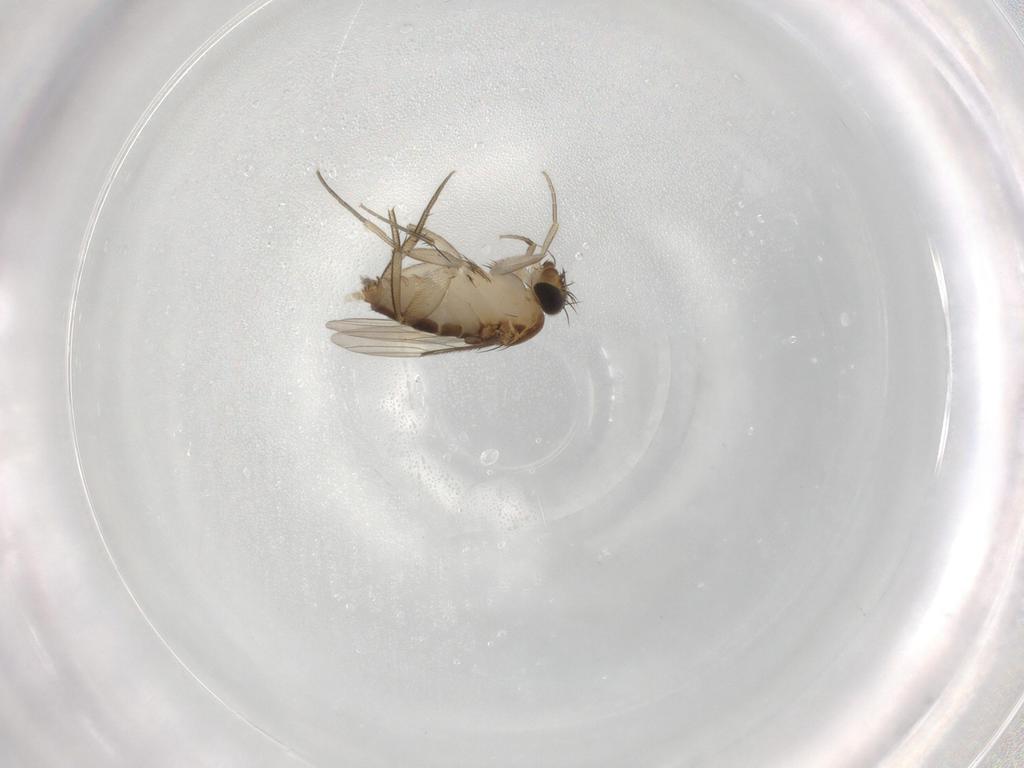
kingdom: Animalia
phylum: Arthropoda
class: Insecta
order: Diptera
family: Phoridae
